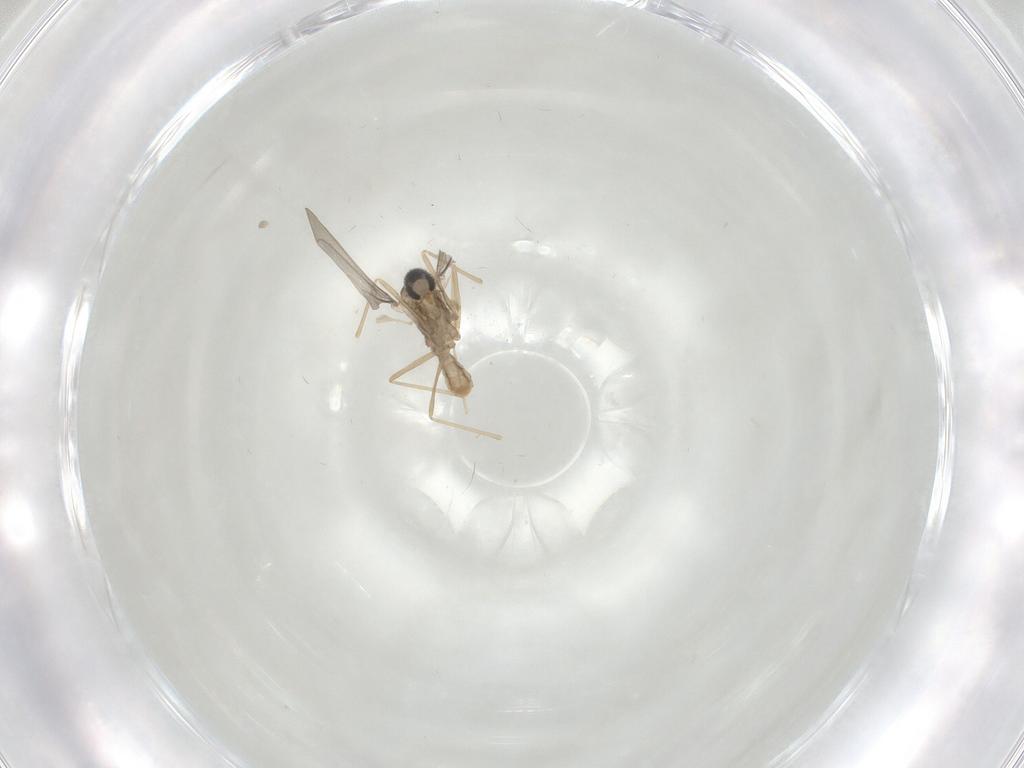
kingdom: Animalia
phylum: Arthropoda
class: Insecta
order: Diptera
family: Cecidomyiidae
